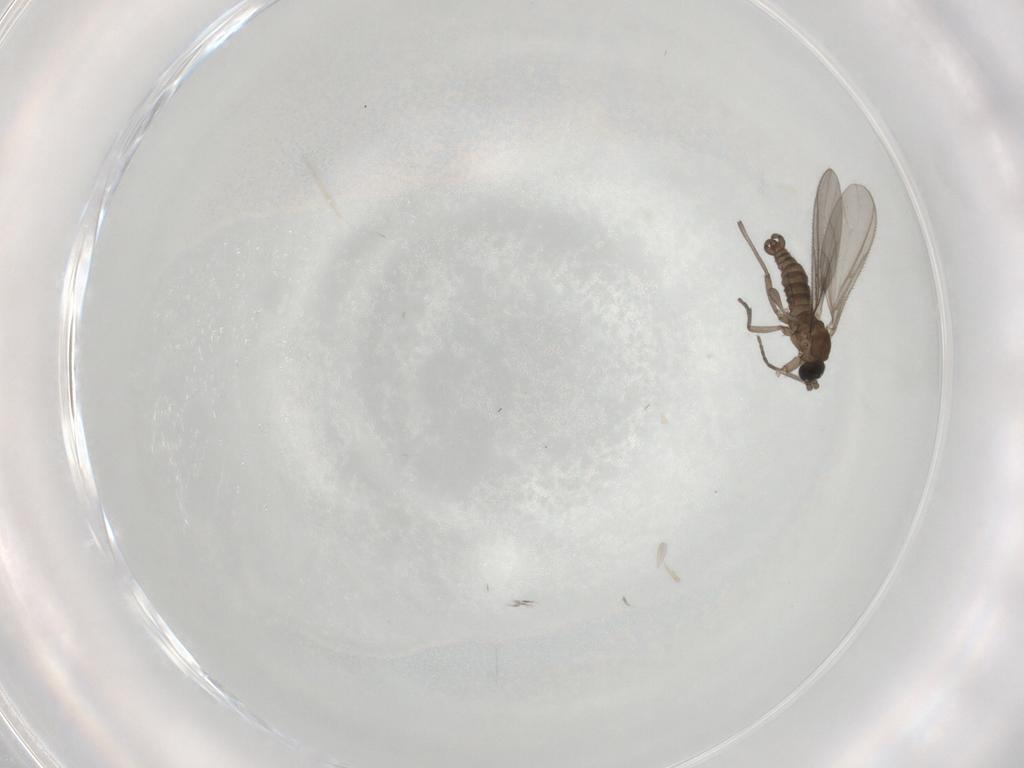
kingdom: Animalia
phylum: Arthropoda
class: Insecta
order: Diptera
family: Sciaridae
